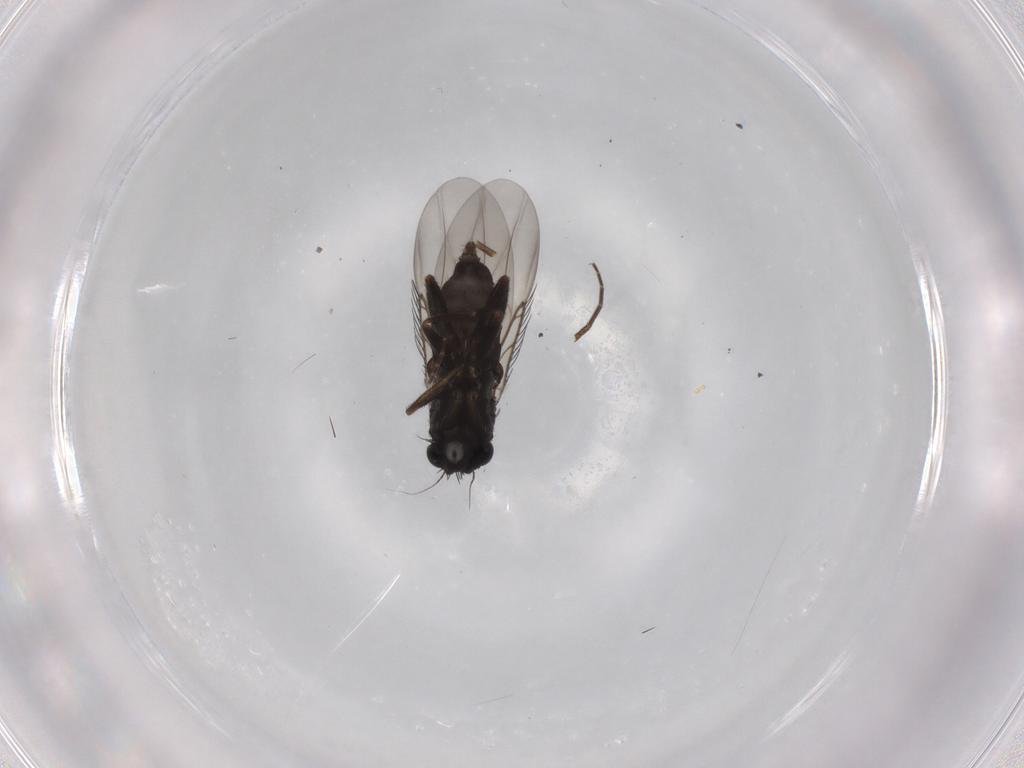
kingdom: Animalia
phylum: Arthropoda
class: Insecta
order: Diptera
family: Phoridae
